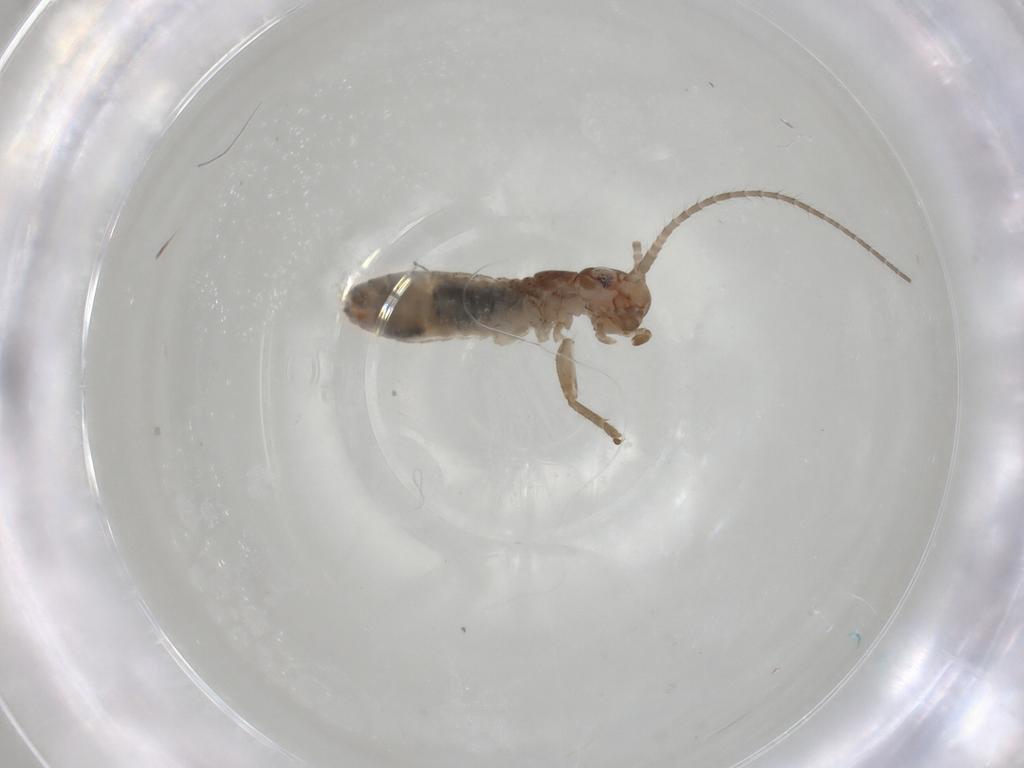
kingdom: Animalia
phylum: Arthropoda
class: Insecta
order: Orthoptera
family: Mogoplistidae
